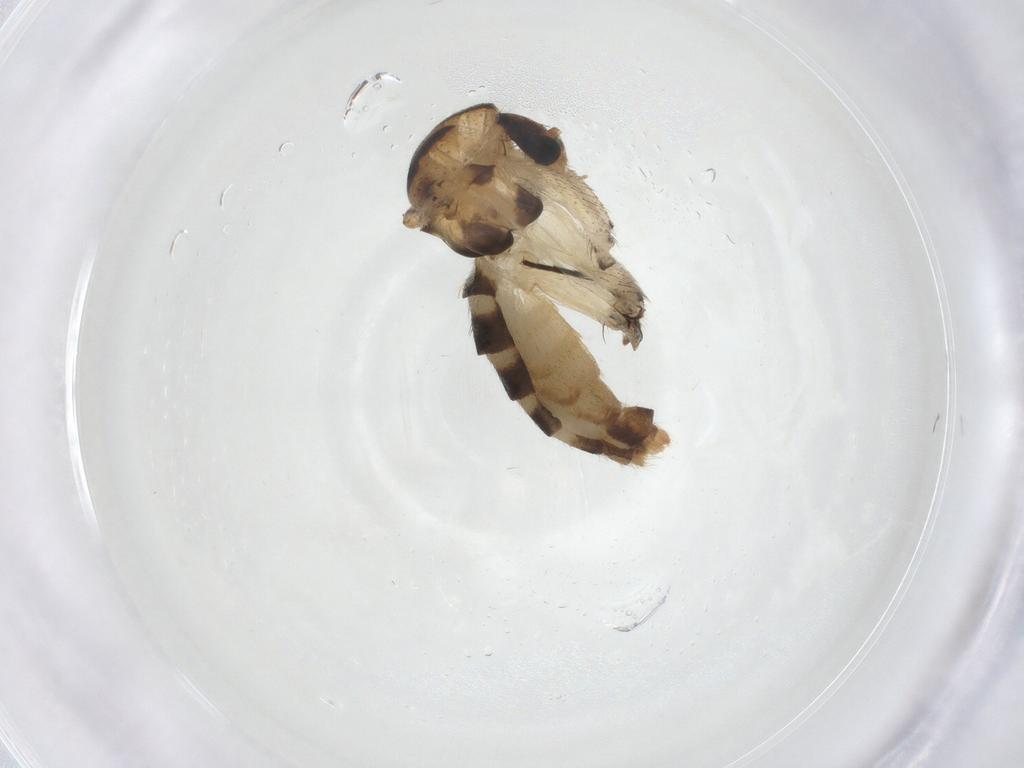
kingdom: Animalia
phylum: Arthropoda
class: Insecta
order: Diptera
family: Mycetophilidae
